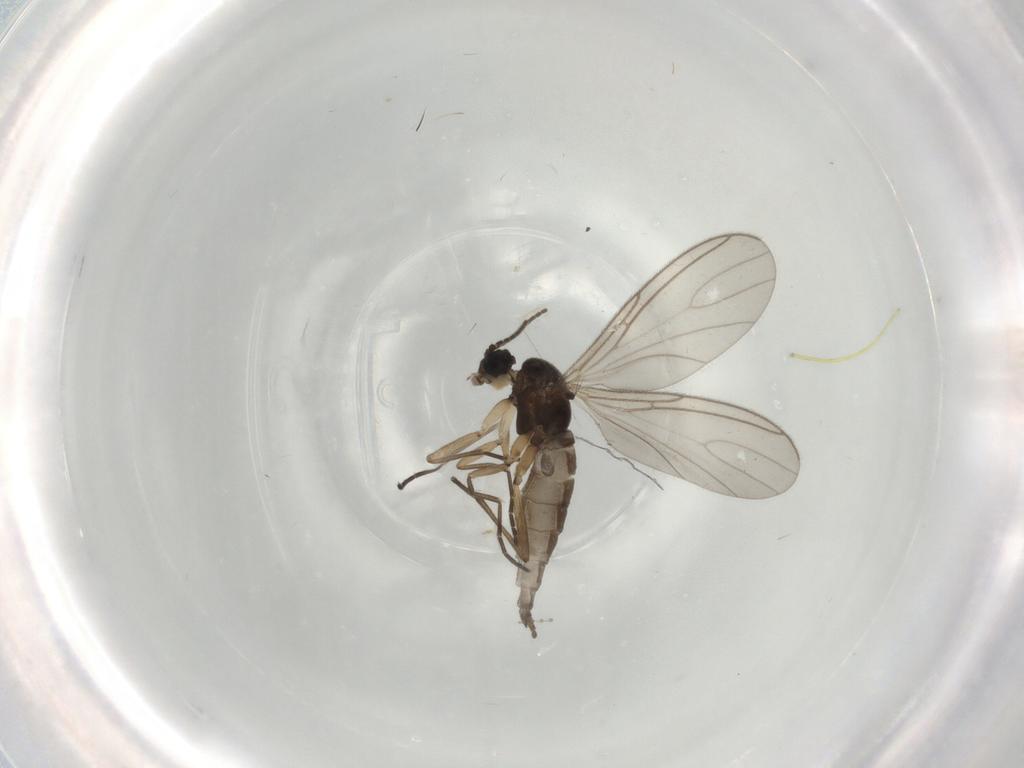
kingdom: Animalia
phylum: Arthropoda
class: Insecta
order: Diptera
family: Sciaridae
